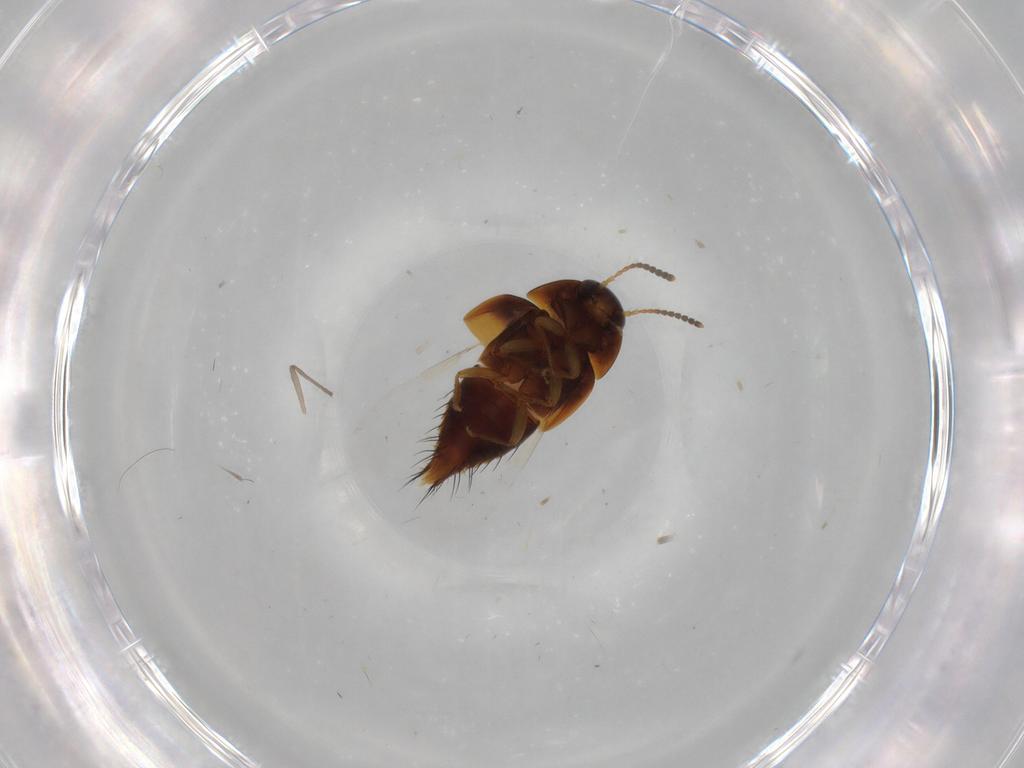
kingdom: Animalia
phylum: Arthropoda
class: Insecta
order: Coleoptera
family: Staphylinidae
